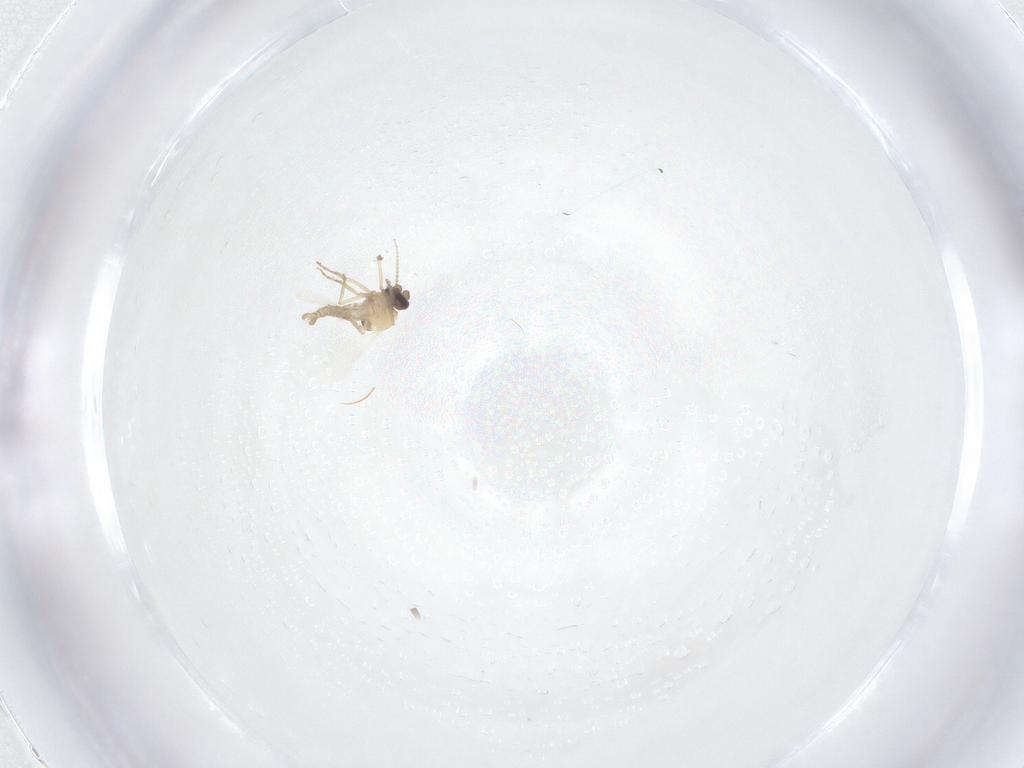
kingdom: Animalia
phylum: Arthropoda
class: Insecta
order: Diptera
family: Ceratopogonidae
